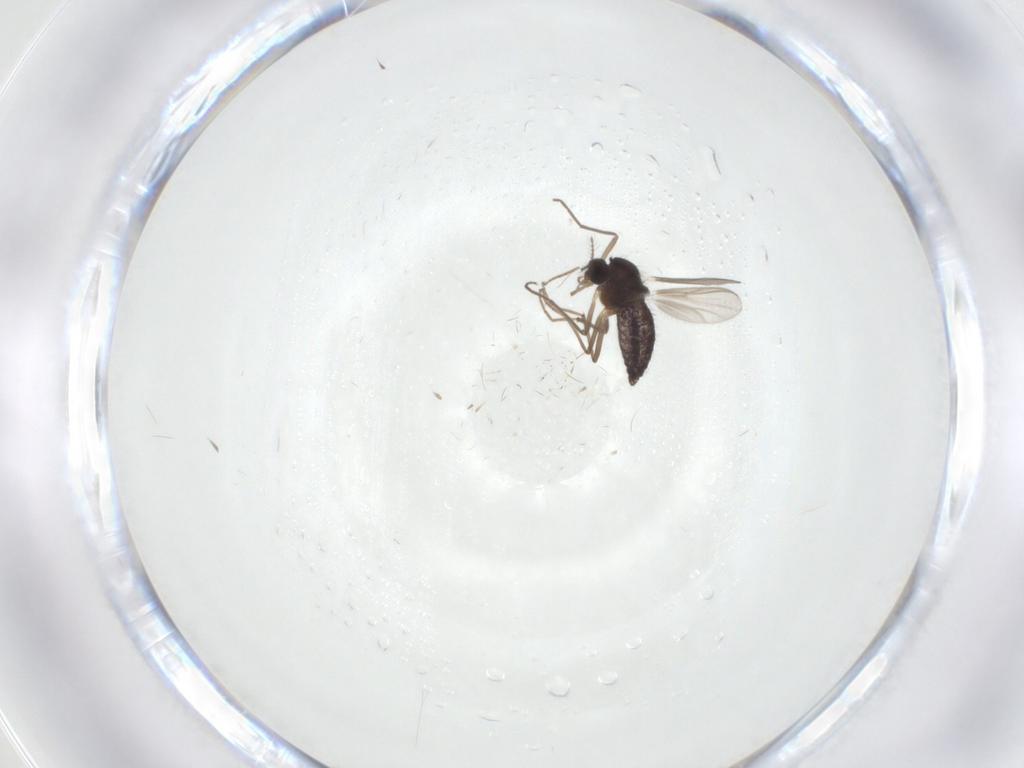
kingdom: Animalia
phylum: Arthropoda
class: Insecta
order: Diptera
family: Chironomidae
